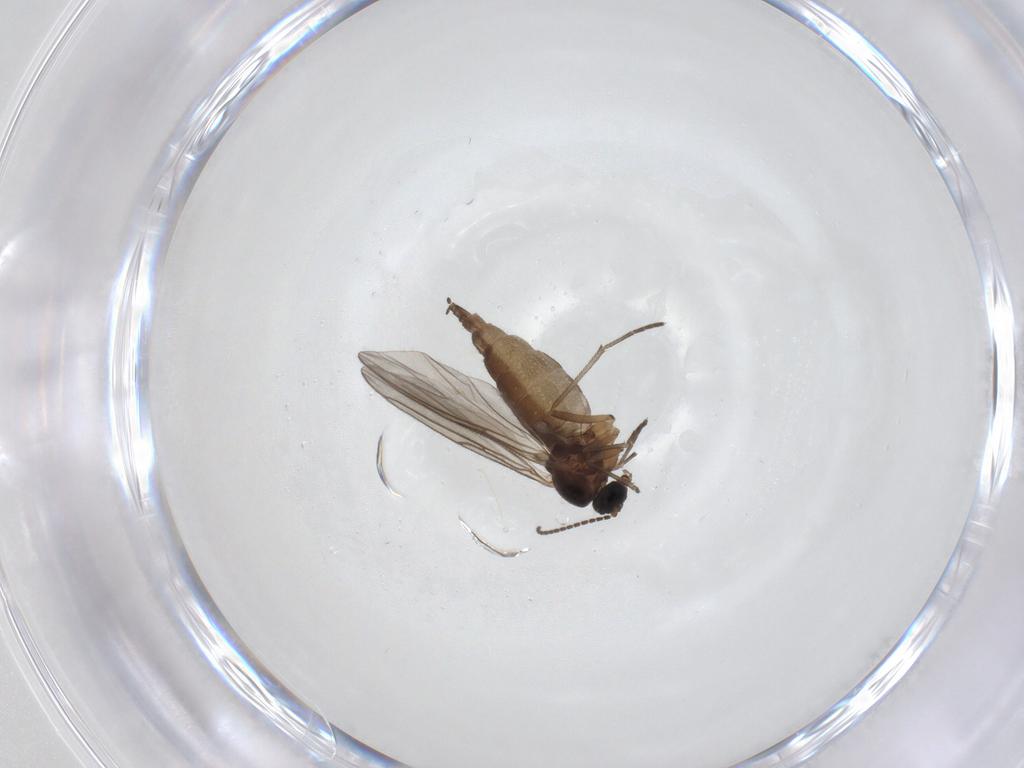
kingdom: Animalia
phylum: Arthropoda
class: Insecta
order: Diptera
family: Sciaridae
